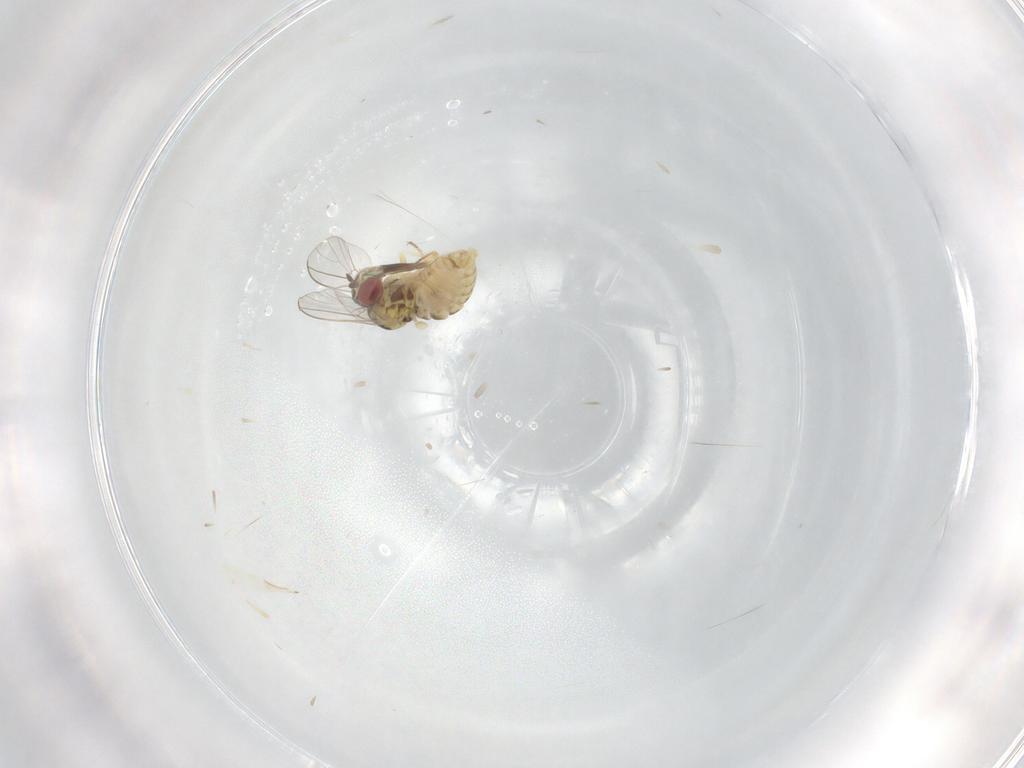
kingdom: Animalia
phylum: Arthropoda
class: Insecta
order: Diptera
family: Bombyliidae
